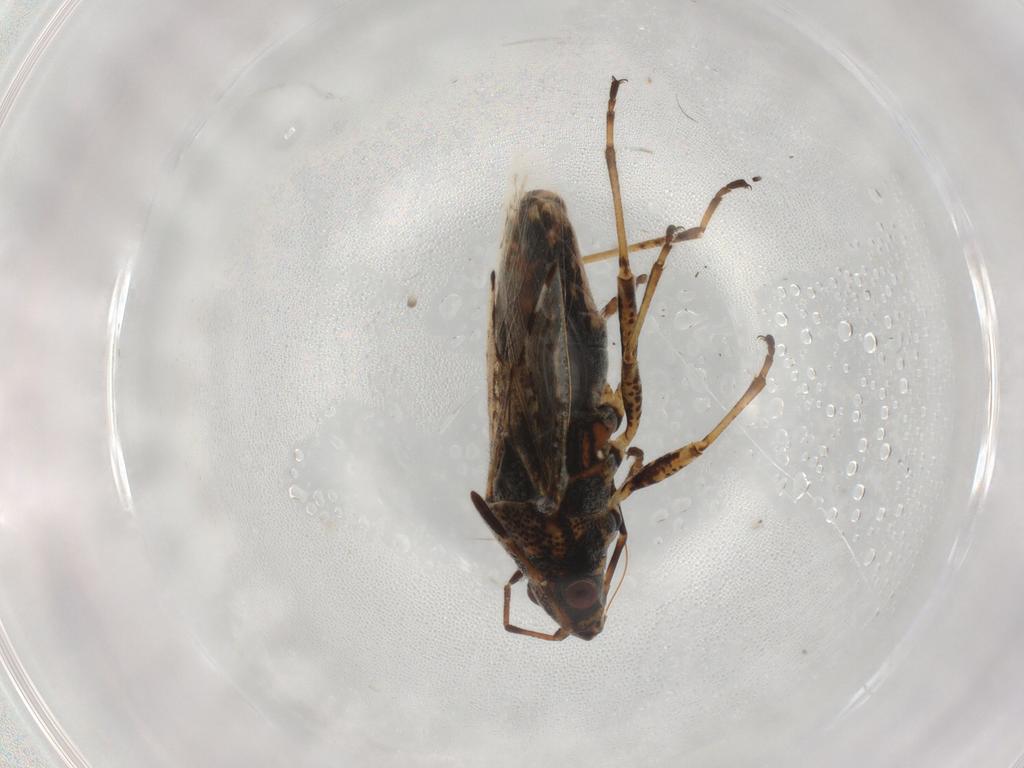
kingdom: Animalia
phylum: Arthropoda
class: Insecta
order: Hemiptera
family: Lygaeidae
